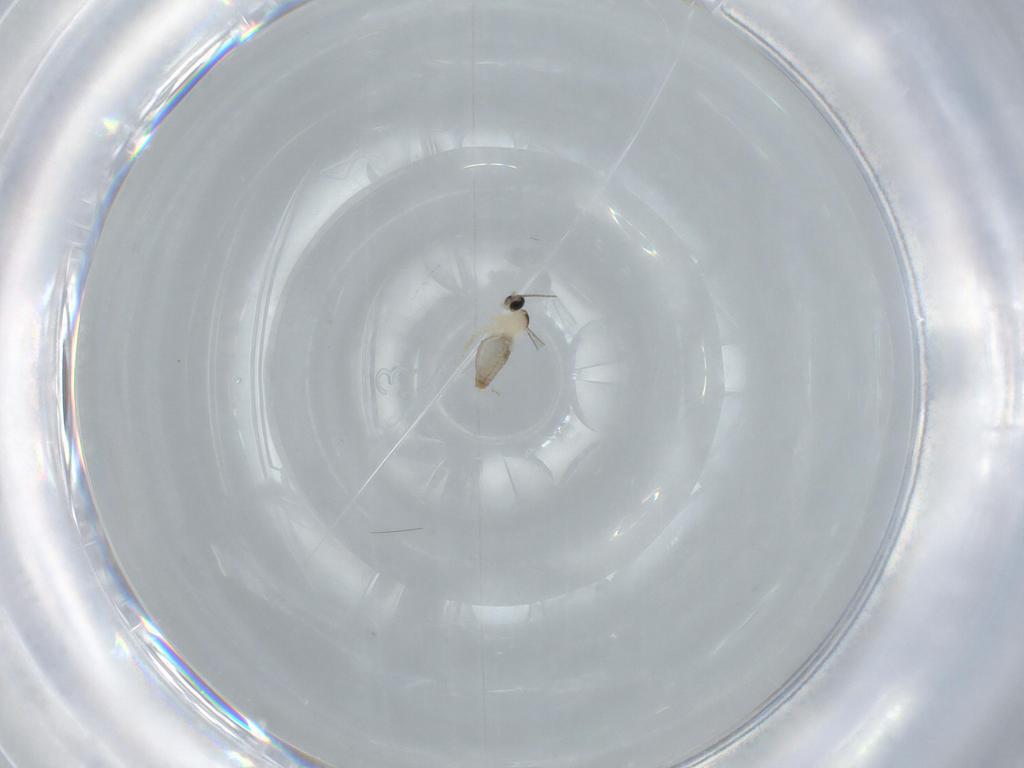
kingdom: Animalia
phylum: Arthropoda
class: Insecta
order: Diptera
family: Cecidomyiidae
